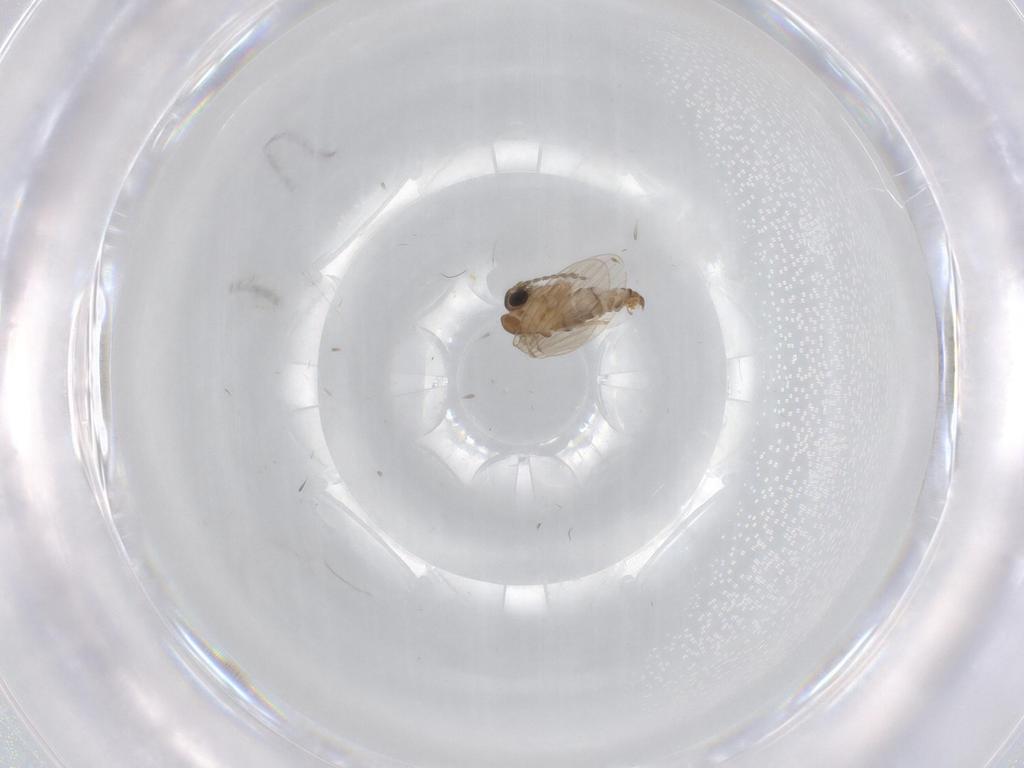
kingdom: Animalia
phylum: Arthropoda
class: Insecta
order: Diptera
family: Psychodidae
